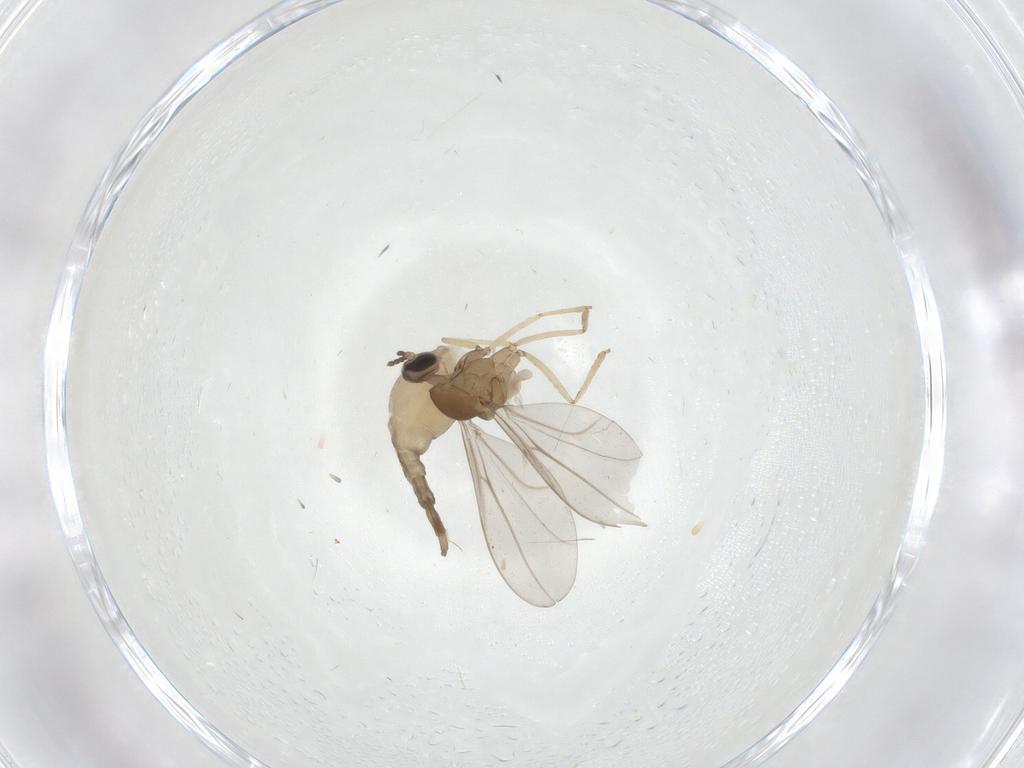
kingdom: Animalia
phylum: Arthropoda
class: Insecta
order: Diptera
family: Cecidomyiidae
